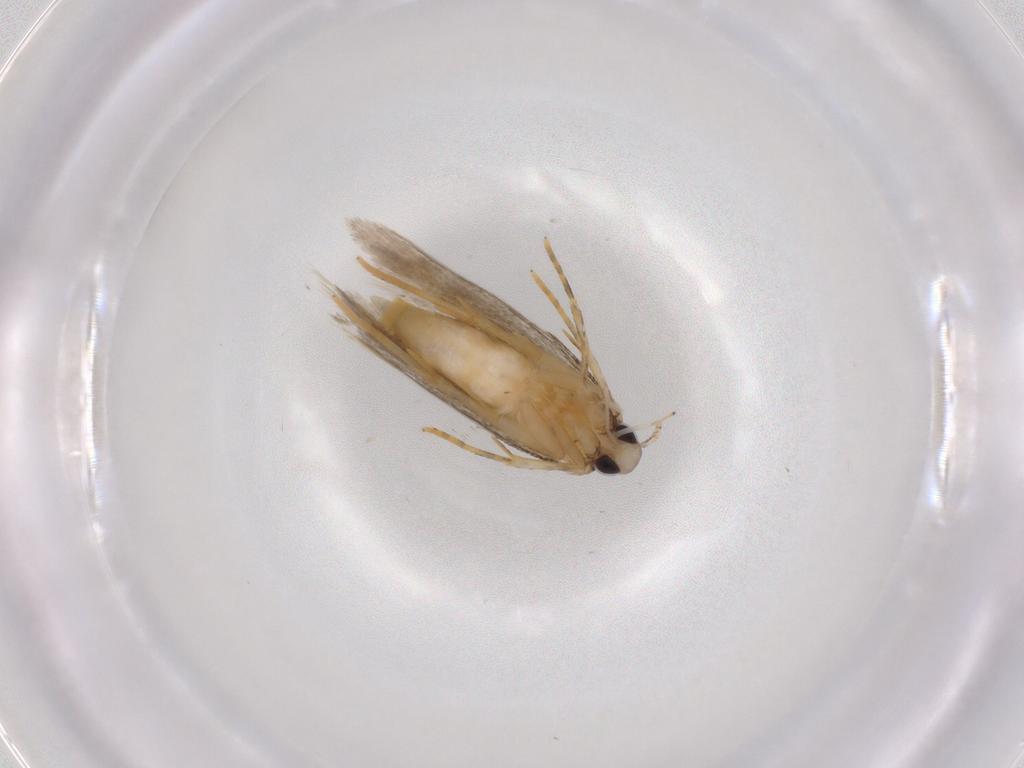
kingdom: Animalia
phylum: Arthropoda
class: Insecta
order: Lepidoptera
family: Autostichidae
